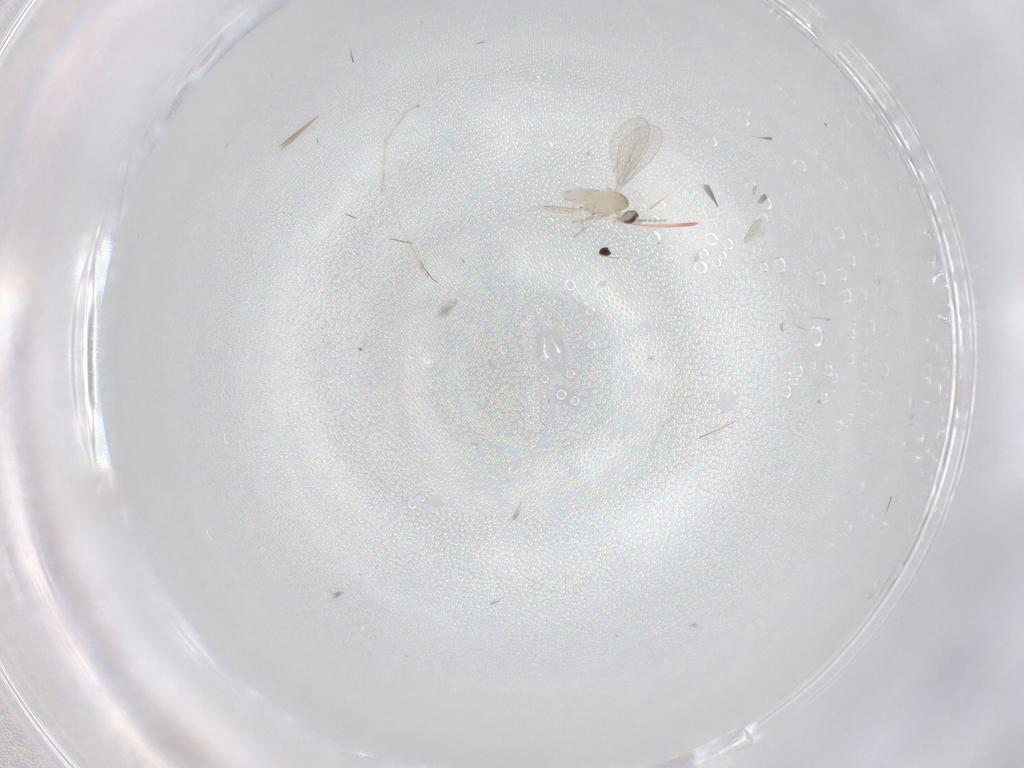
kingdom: Animalia
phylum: Arthropoda
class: Insecta
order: Diptera
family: Cecidomyiidae
